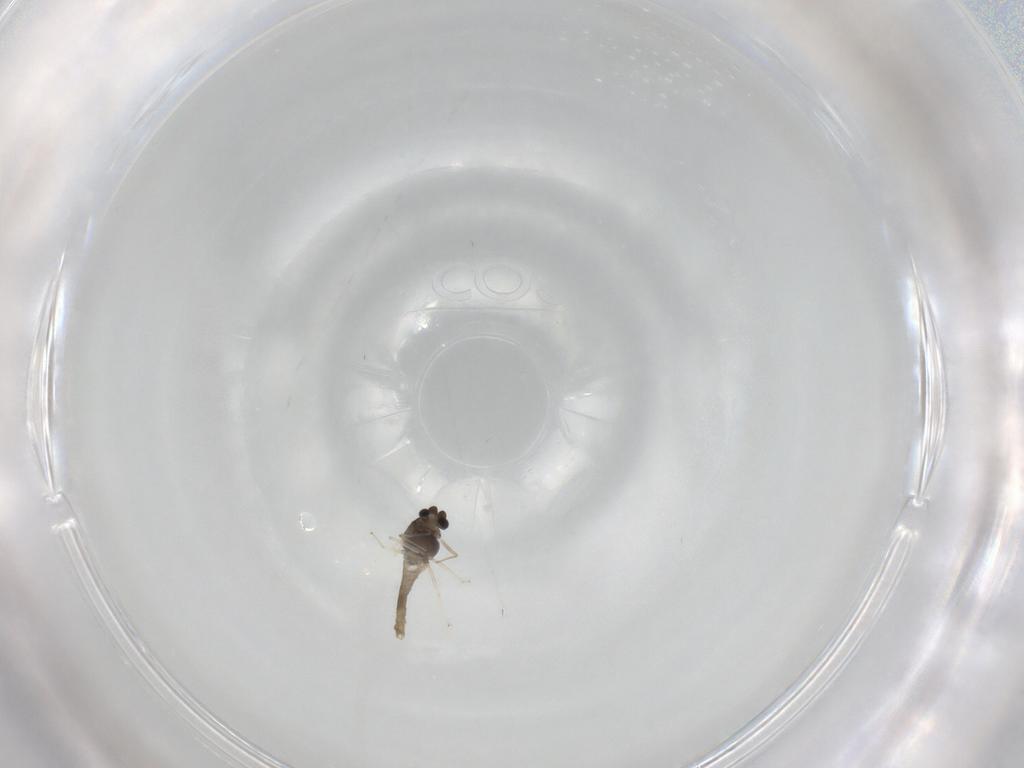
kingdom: Animalia
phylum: Arthropoda
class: Insecta
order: Diptera
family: Chironomidae
